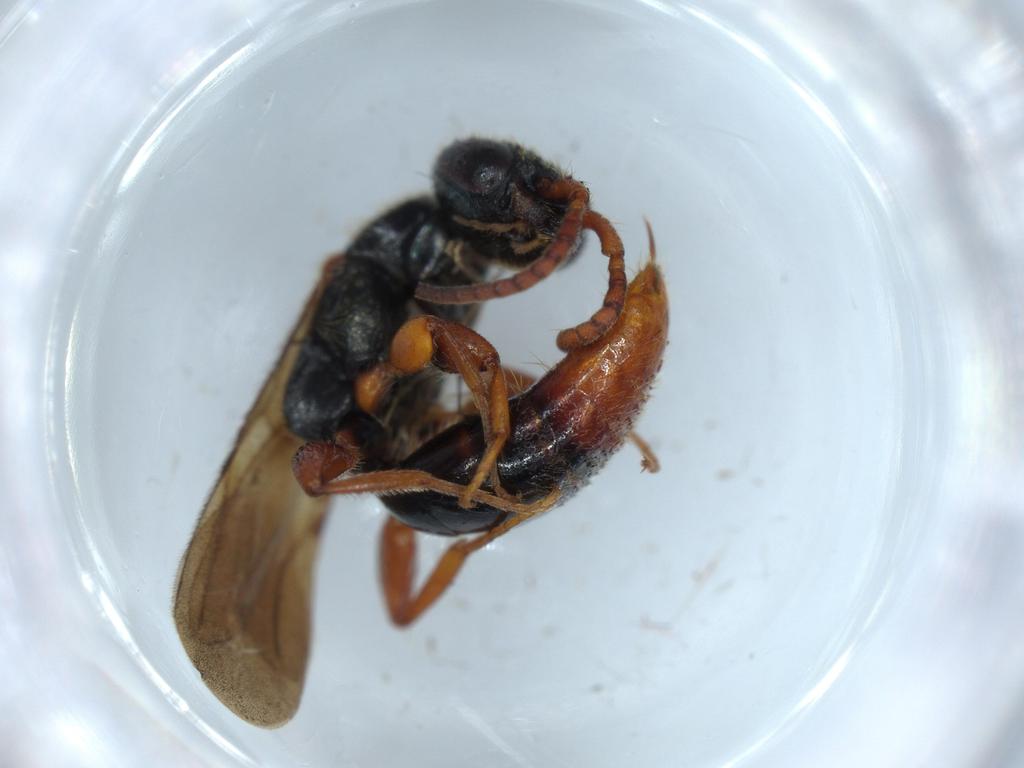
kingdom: Animalia
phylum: Arthropoda
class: Insecta
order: Hymenoptera
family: Bethylidae
